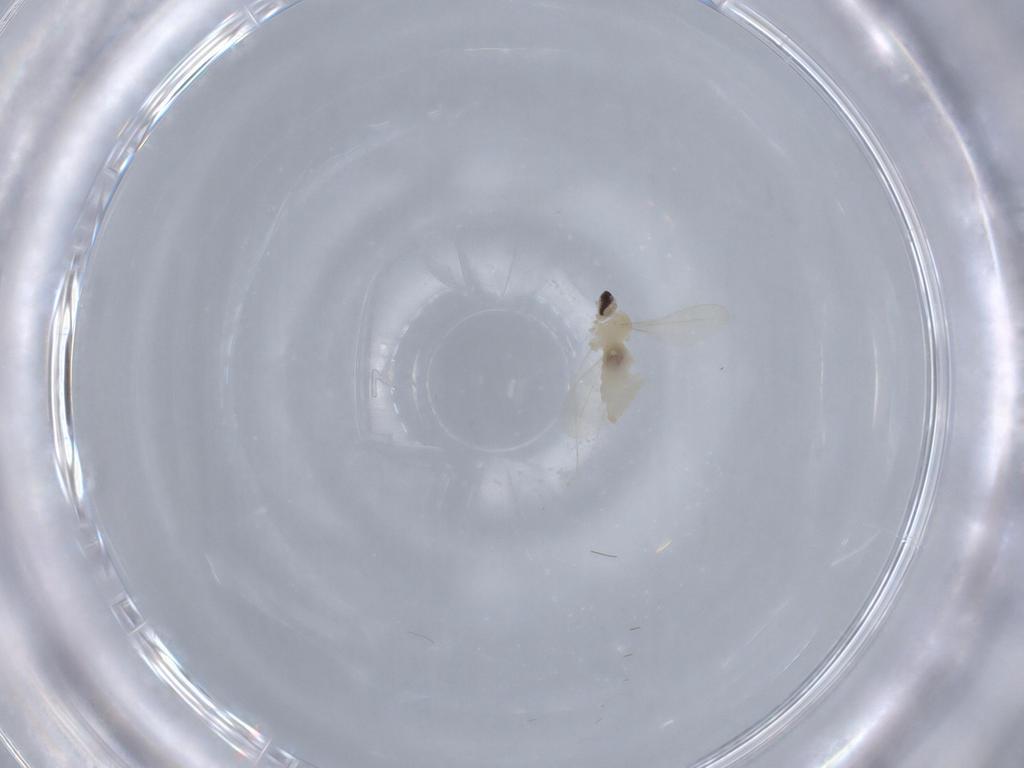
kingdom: Animalia
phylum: Arthropoda
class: Insecta
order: Diptera
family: Cecidomyiidae
